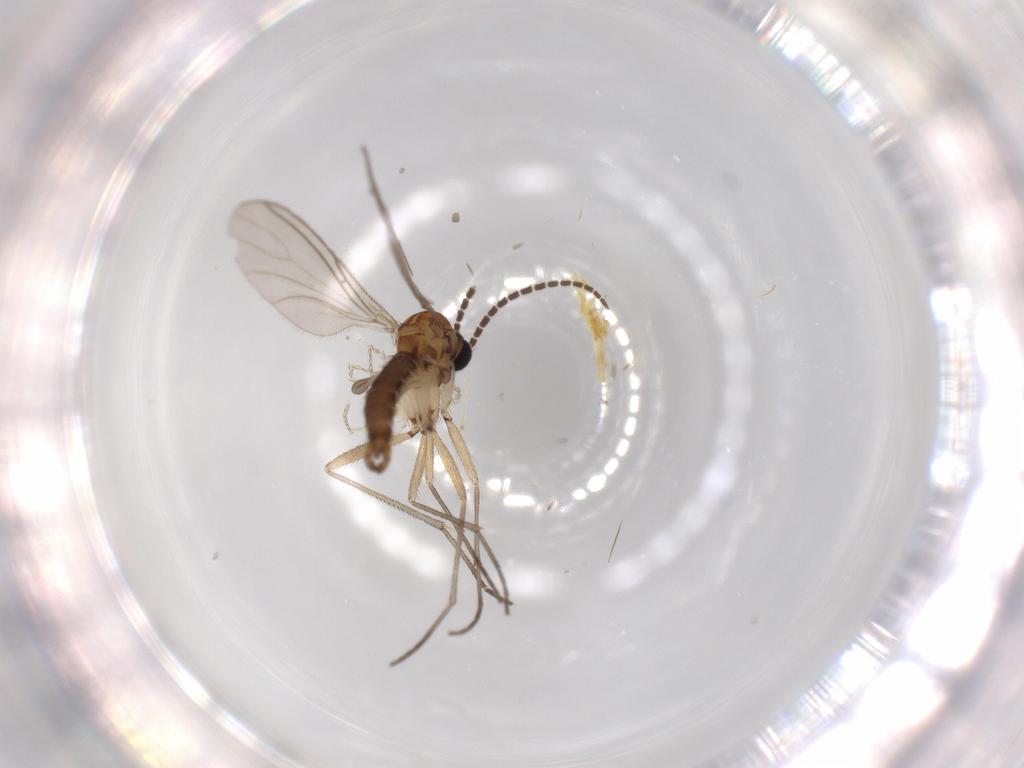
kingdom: Animalia
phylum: Arthropoda
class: Insecta
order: Diptera
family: Sciaridae
